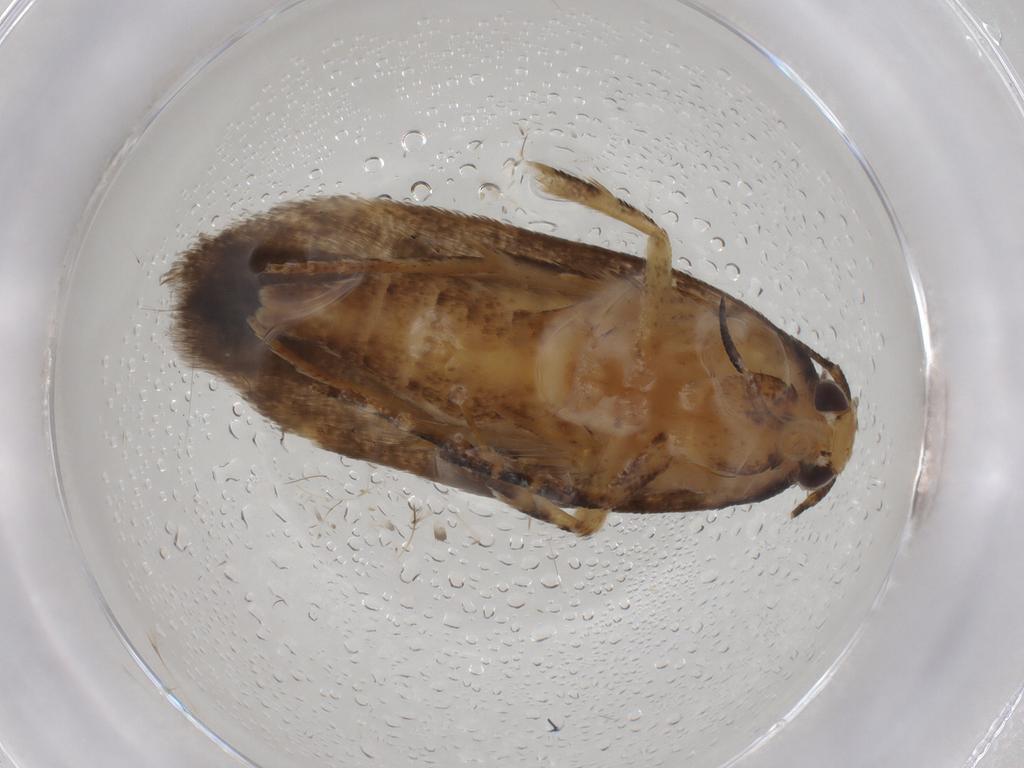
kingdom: Animalia
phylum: Arthropoda
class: Insecta
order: Lepidoptera
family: Gelechiidae
